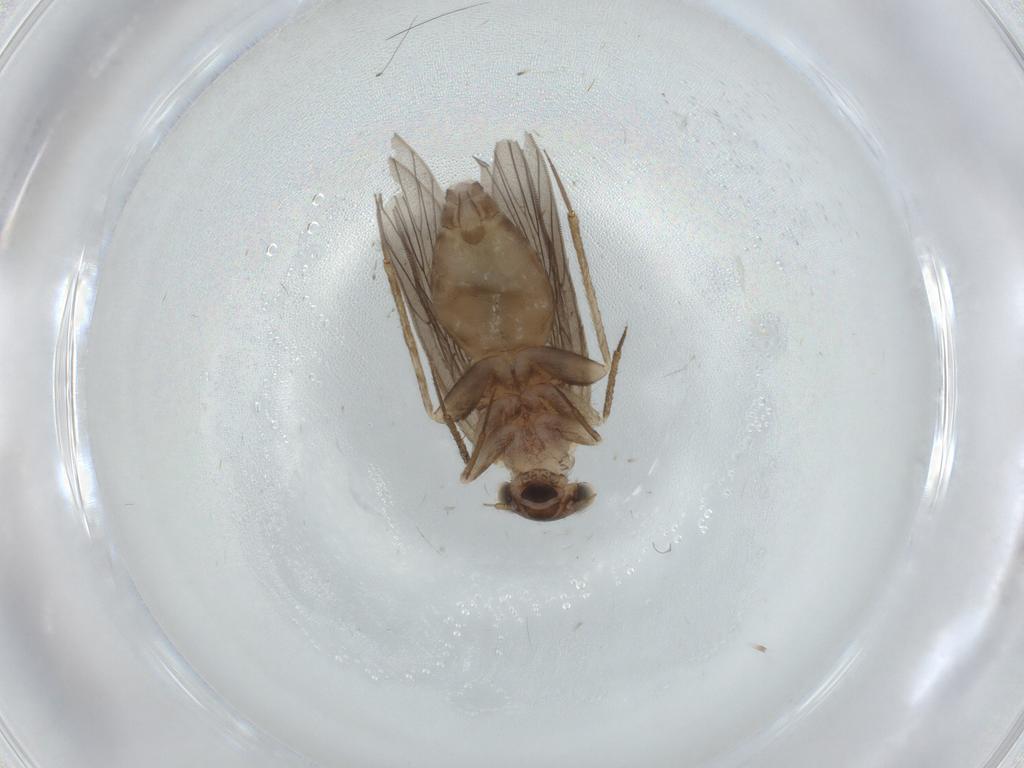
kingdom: Animalia
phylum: Arthropoda
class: Insecta
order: Psocodea
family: Lepidopsocidae
